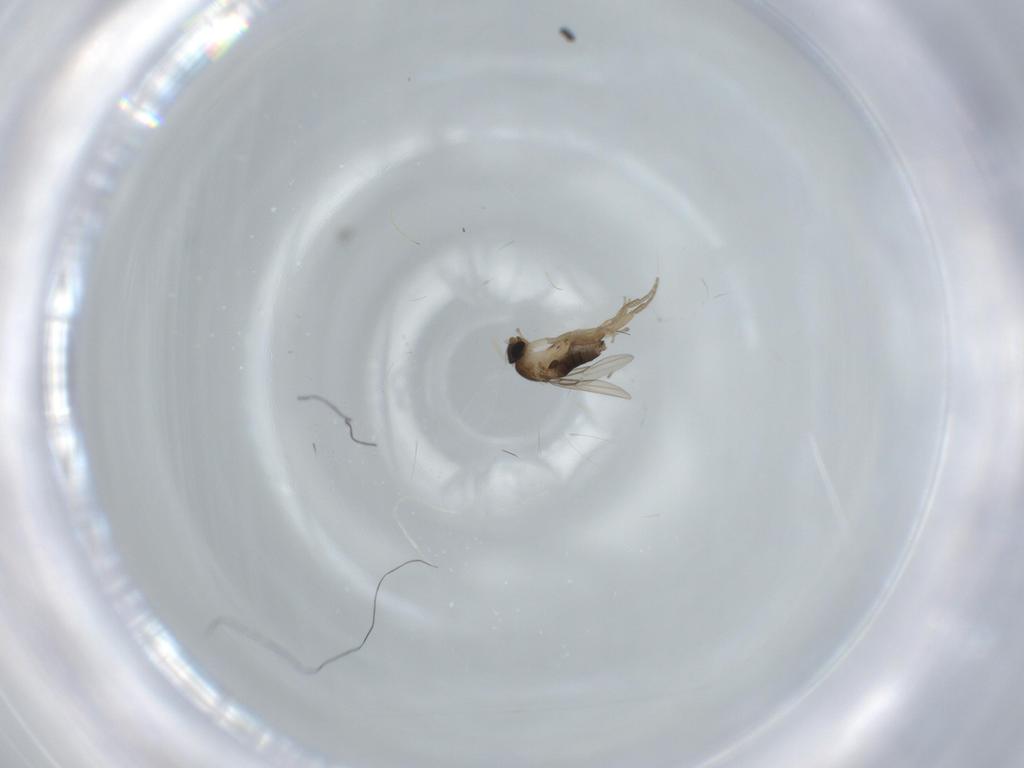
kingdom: Animalia
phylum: Arthropoda
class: Insecta
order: Diptera
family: Phoridae
